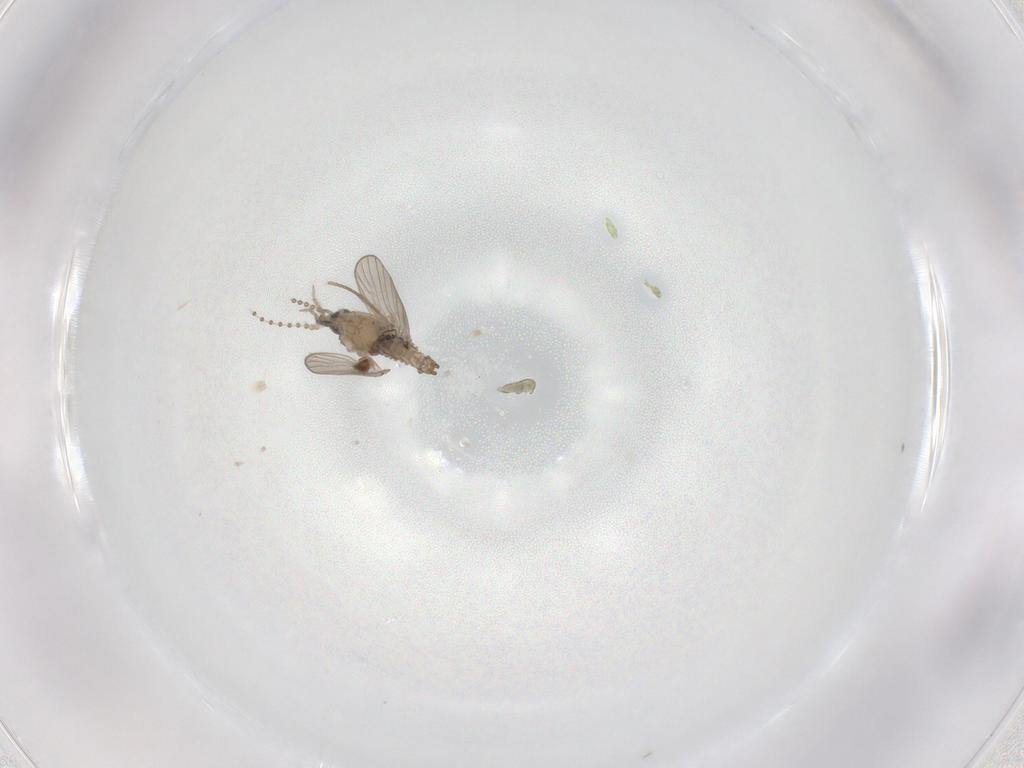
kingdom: Animalia
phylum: Arthropoda
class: Insecta
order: Diptera
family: Psychodidae
